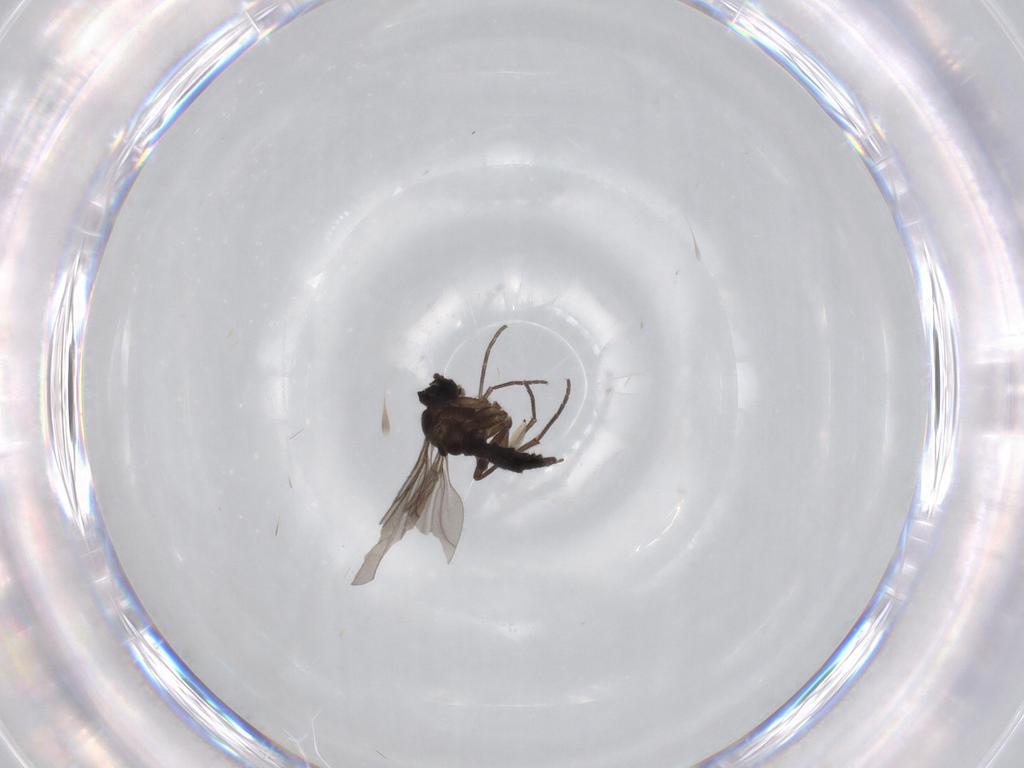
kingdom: Animalia
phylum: Arthropoda
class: Insecta
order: Diptera
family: Sciaridae
